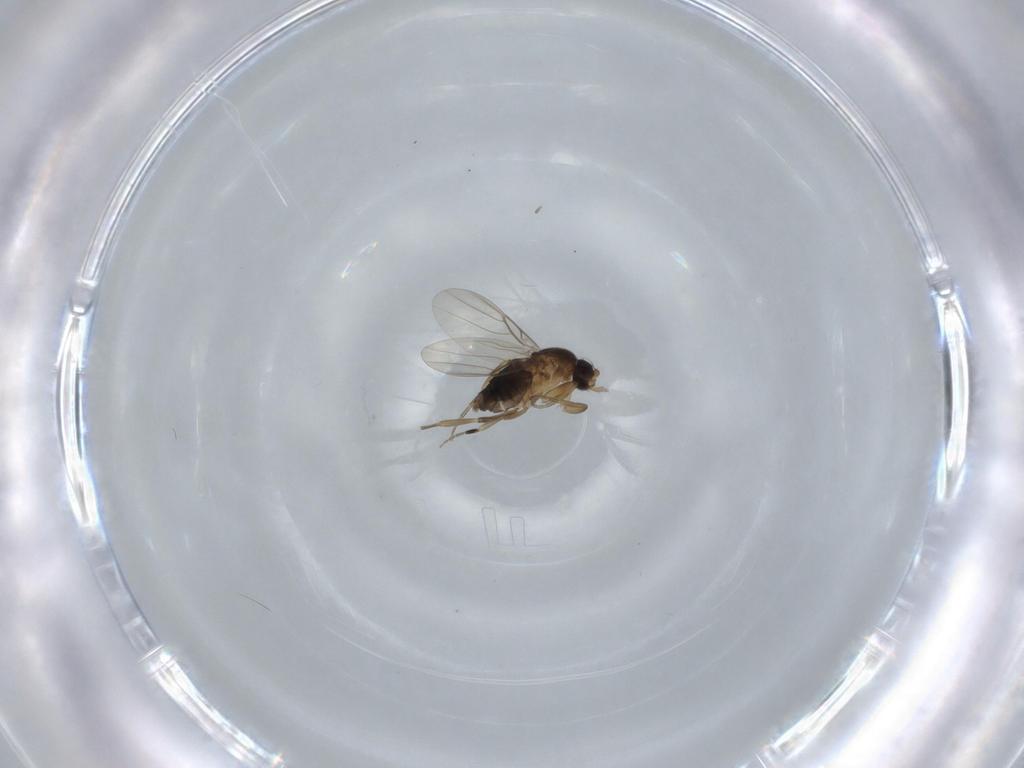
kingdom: Animalia
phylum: Arthropoda
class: Insecta
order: Diptera
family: Phoridae
